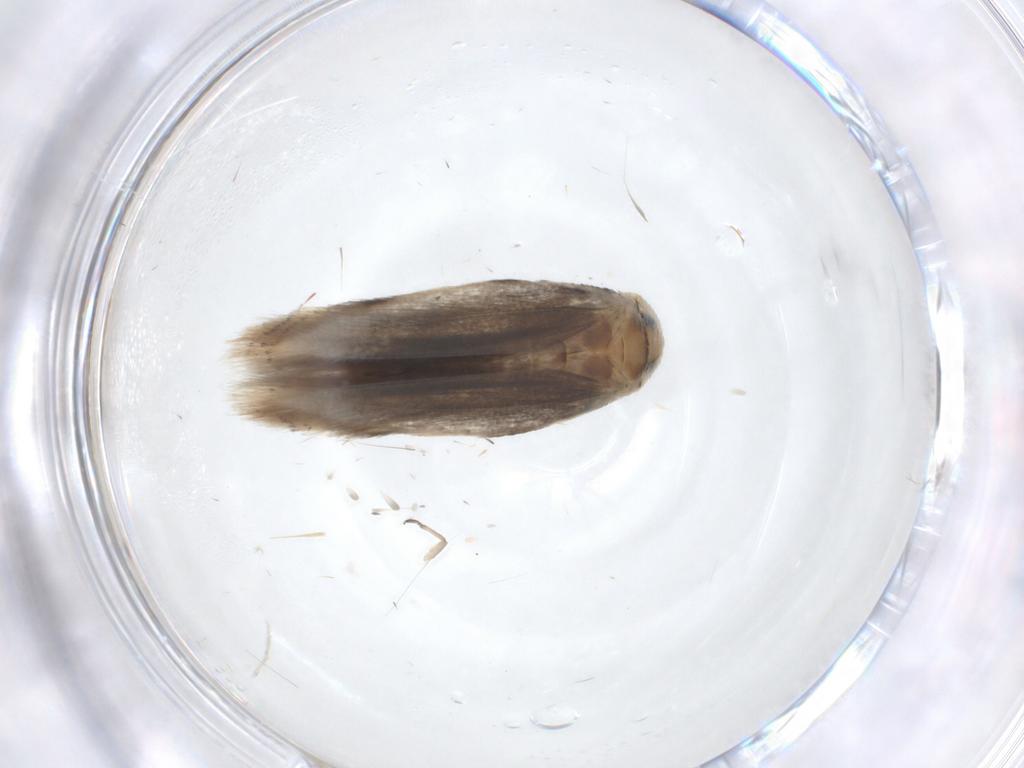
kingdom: Animalia
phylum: Arthropoda
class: Insecta
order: Lepidoptera
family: Opostegidae
